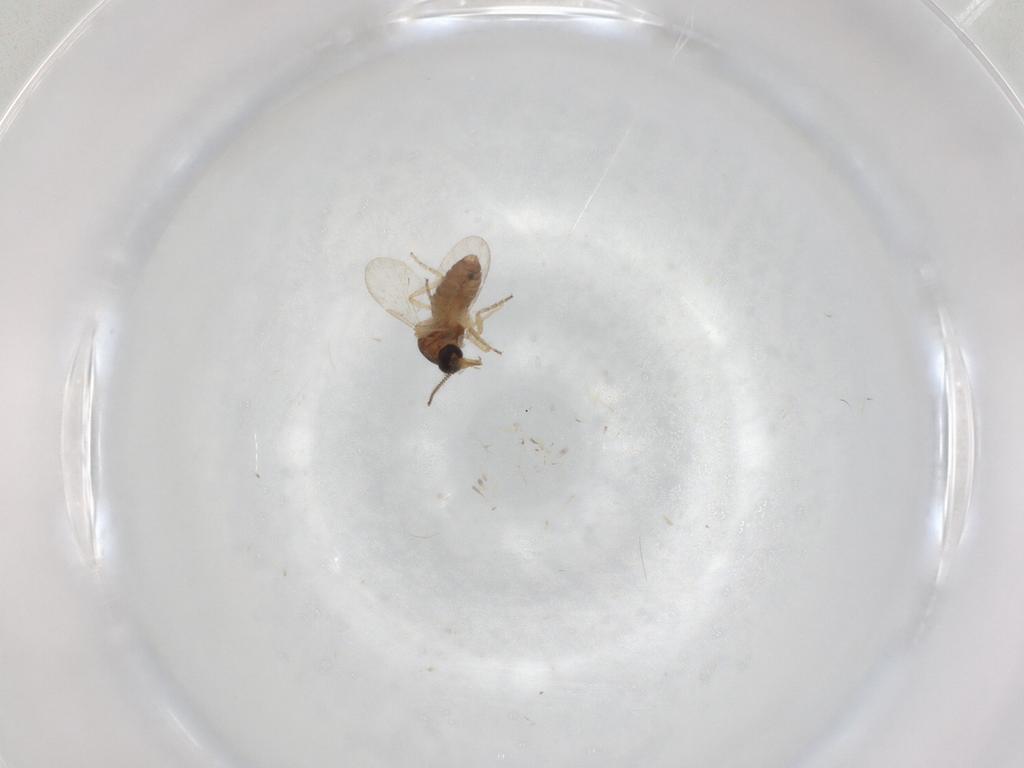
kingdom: Animalia
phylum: Arthropoda
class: Insecta
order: Diptera
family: Ceratopogonidae
